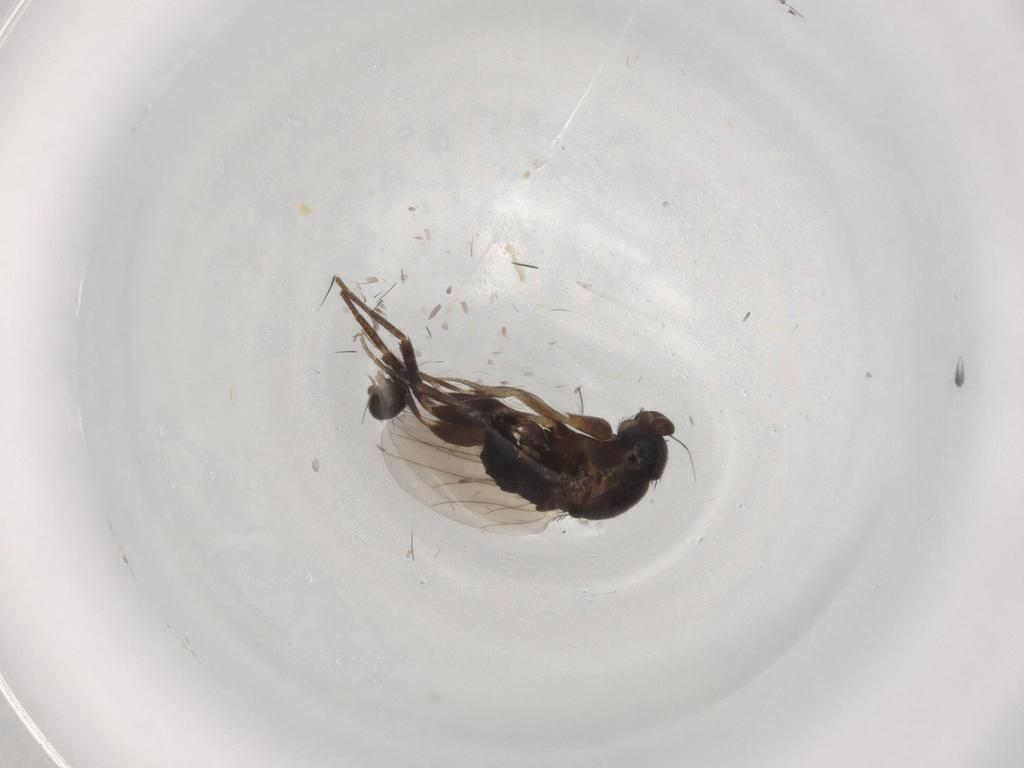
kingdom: Animalia
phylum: Arthropoda
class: Insecta
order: Diptera
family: Phoridae
